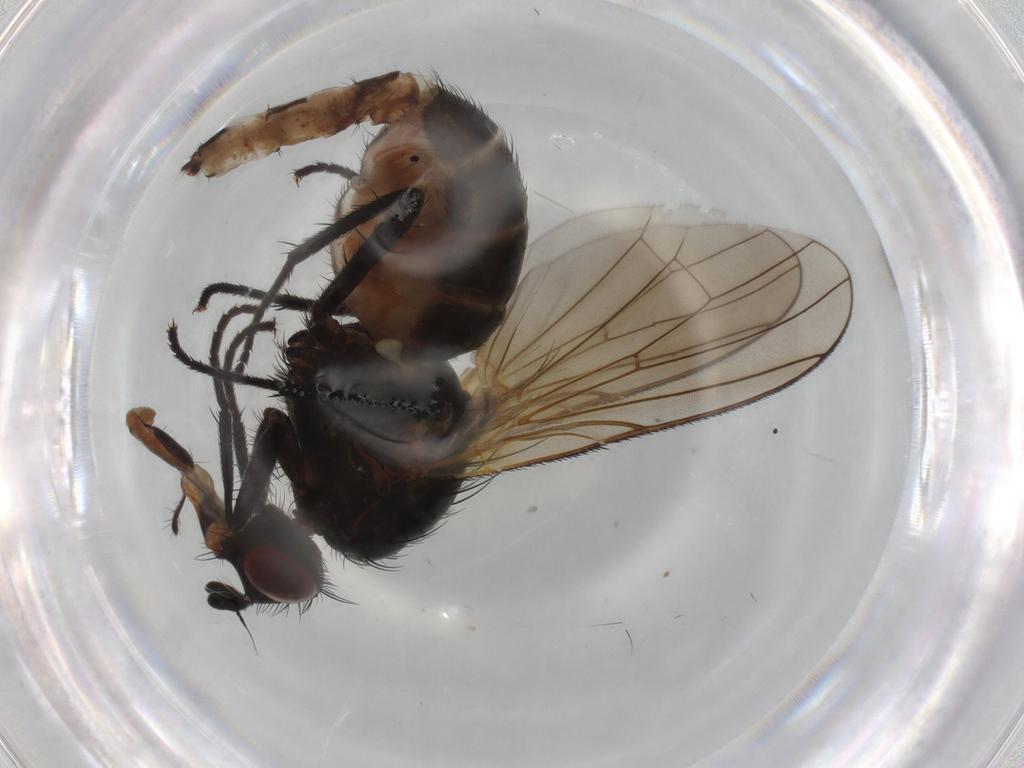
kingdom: Animalia
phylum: Arthropoda
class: Insecta
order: Diptera
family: Anthomyiidae
